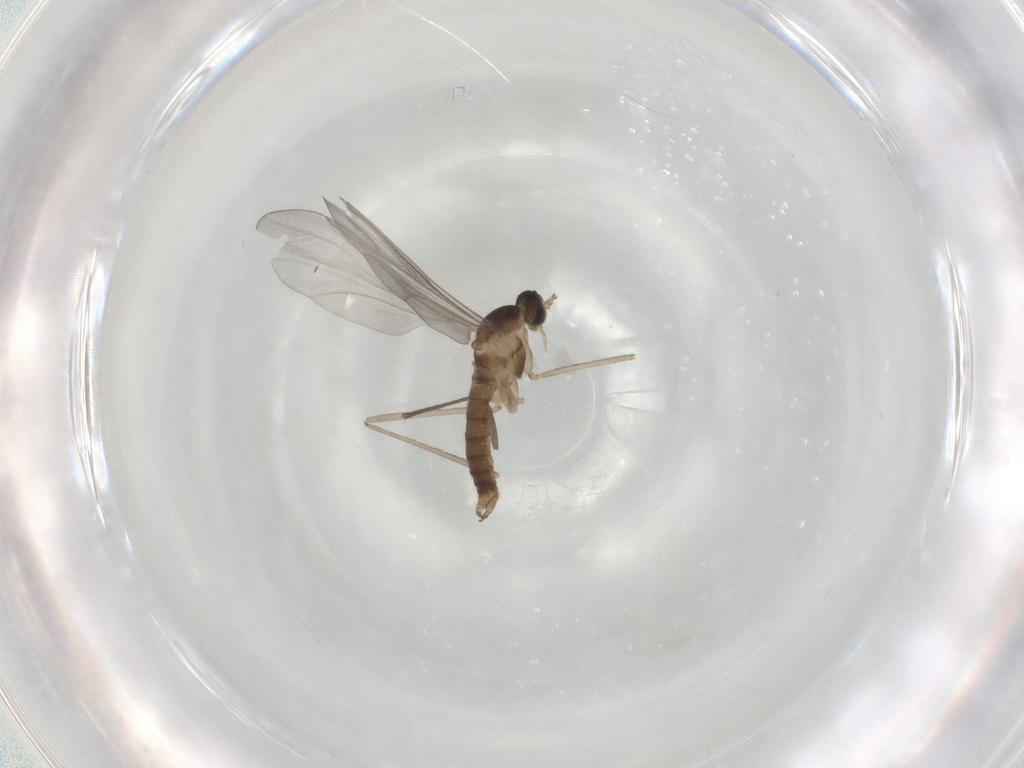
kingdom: Animalia
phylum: Arthropoda
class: Insecta
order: Diptera
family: Cecidomyiidae
